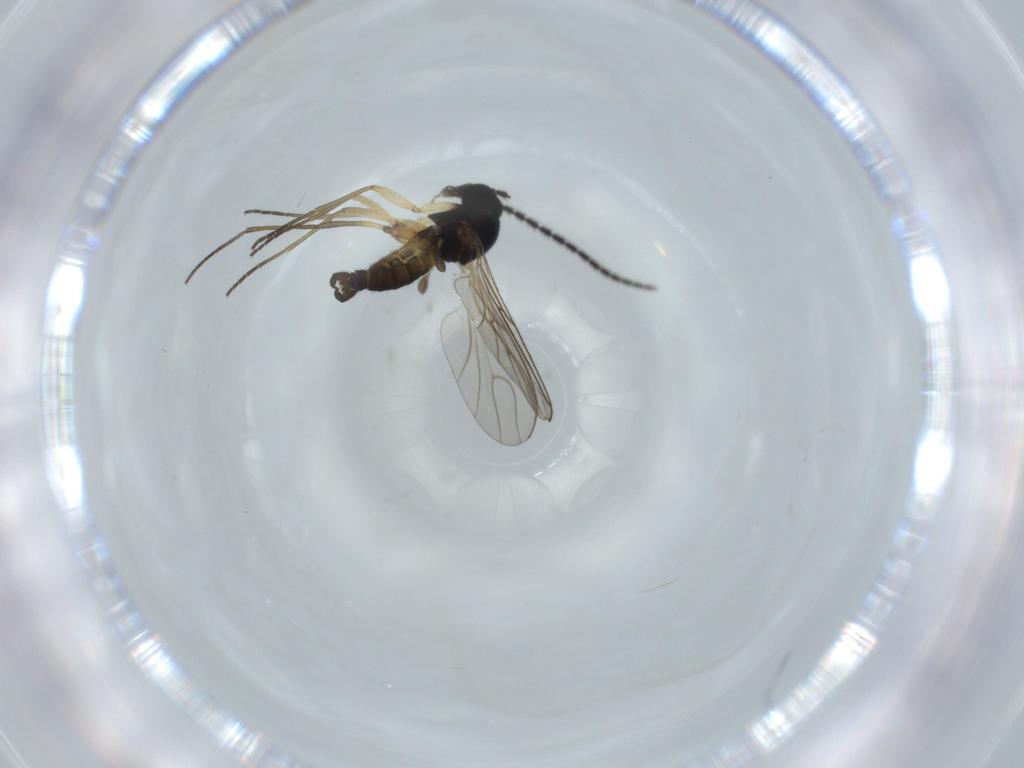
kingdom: Animalia
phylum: Arthropoda
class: Insecta
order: Diptera
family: Sciaridae
